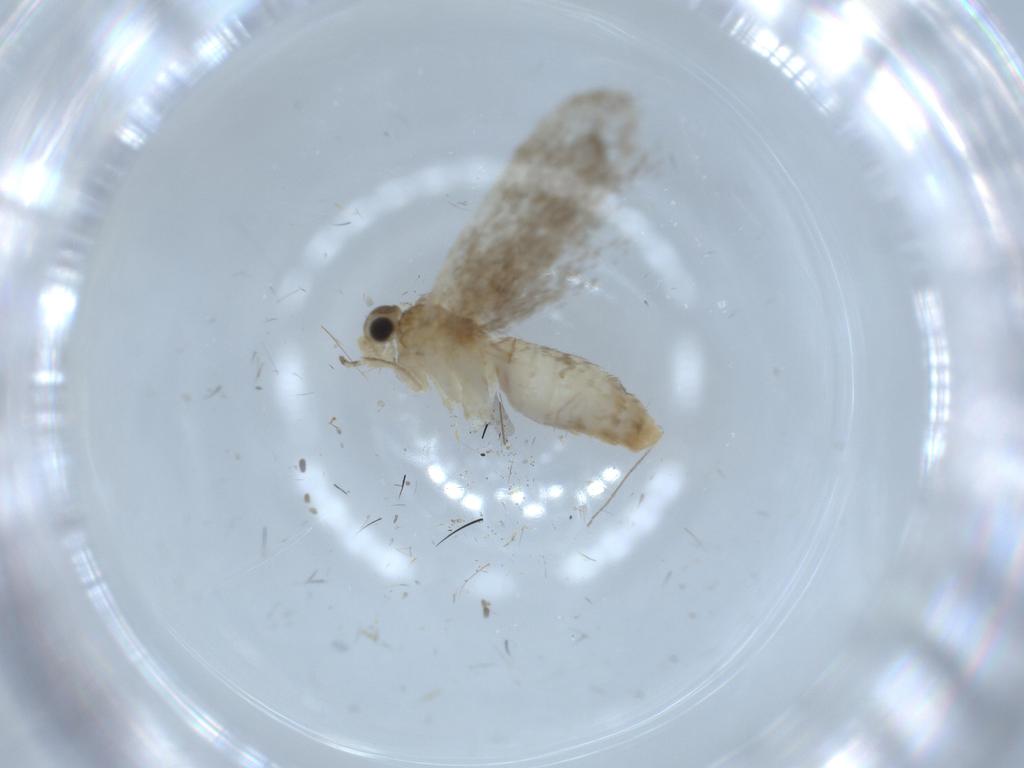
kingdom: Animalia
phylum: Arthropoda
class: Insecta
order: Lepidoptera
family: Tineidae
